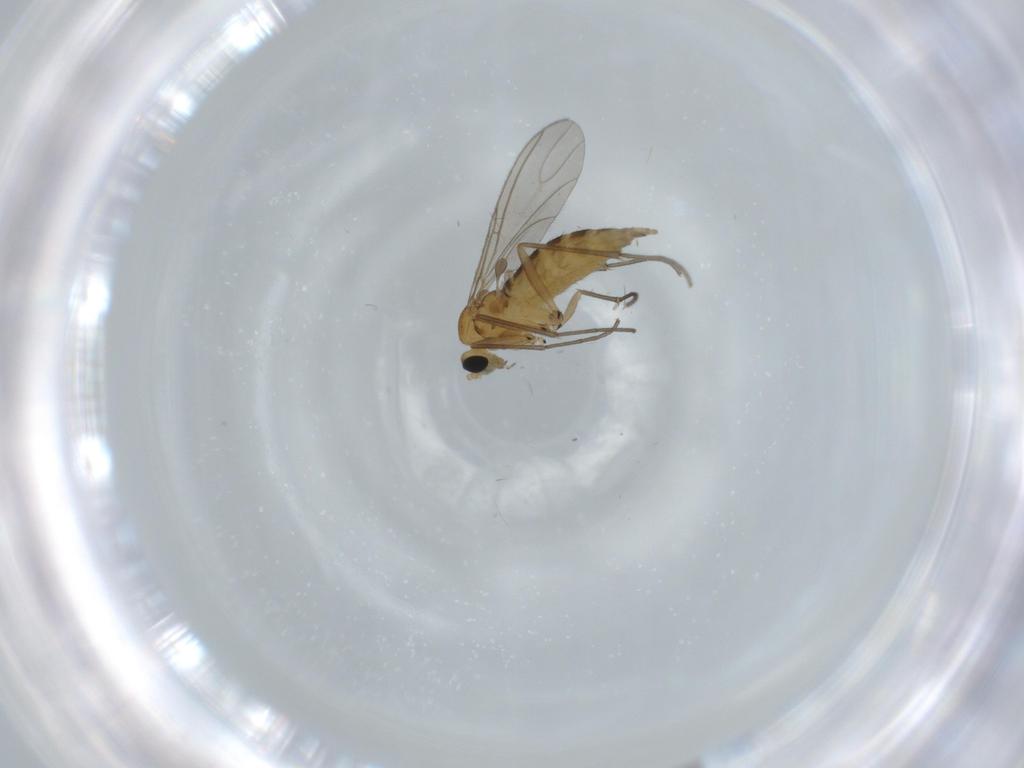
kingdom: Animalia
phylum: Arthropoda
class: Insecta
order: Diptera
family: Sciaridae
